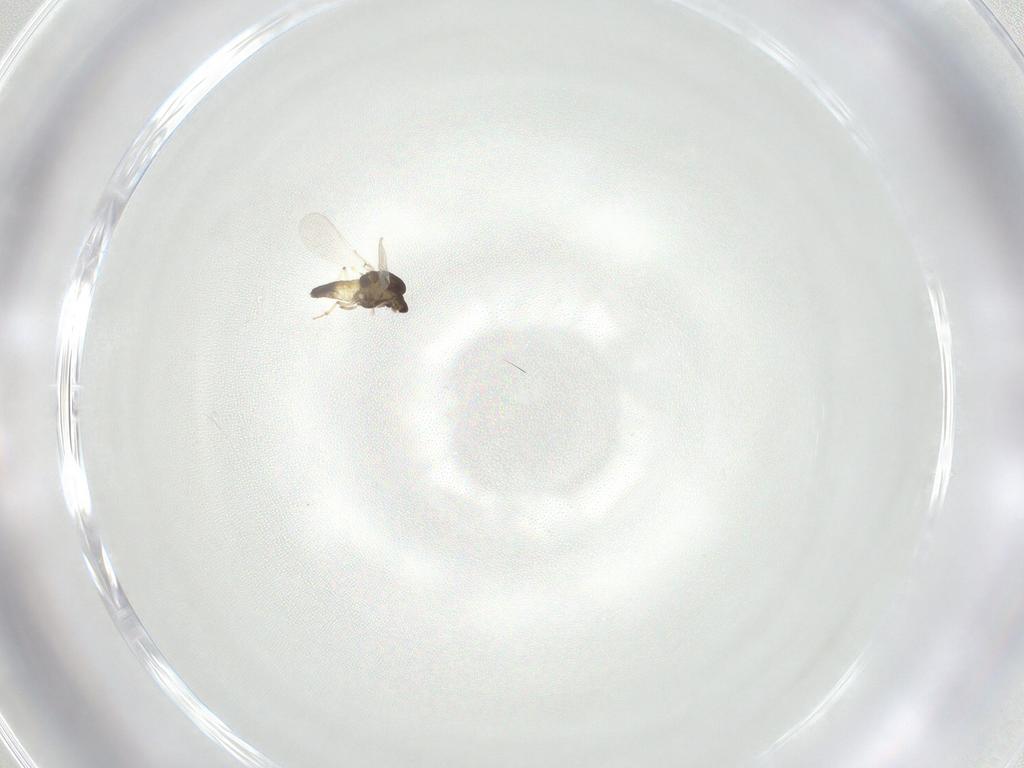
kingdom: Animalia
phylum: Arthropoda
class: Insecta
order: Diptera
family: Chironomidae
